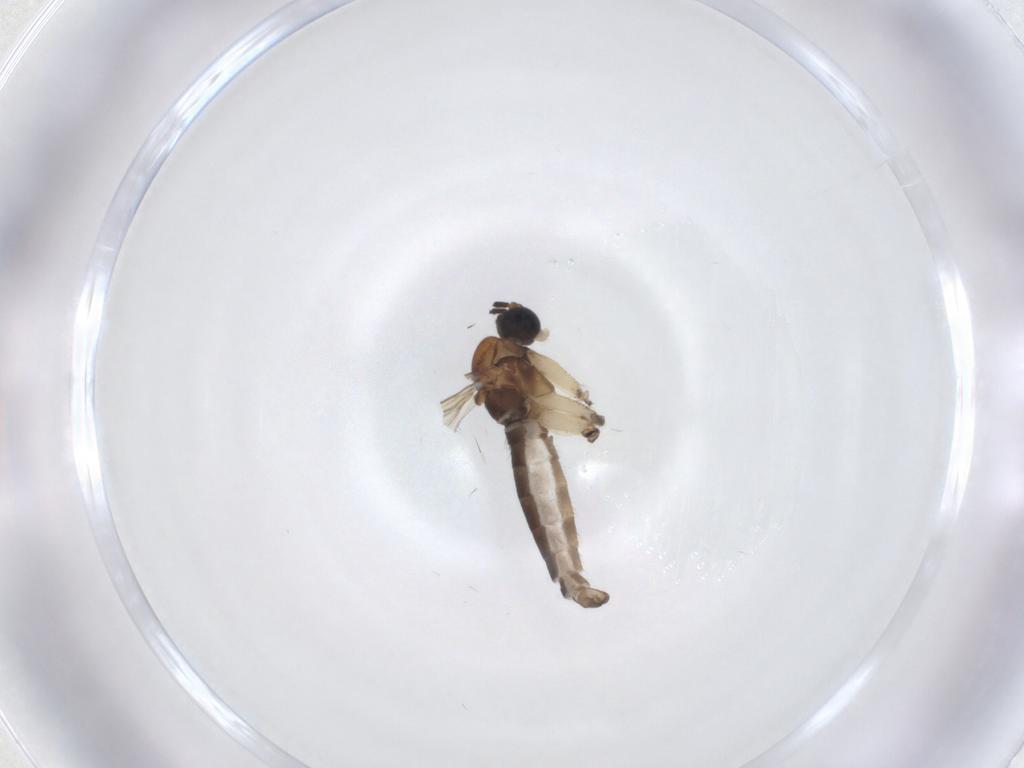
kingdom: Animalia
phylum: Arthropoda
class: Insecta
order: Diptera
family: Sciaridae
